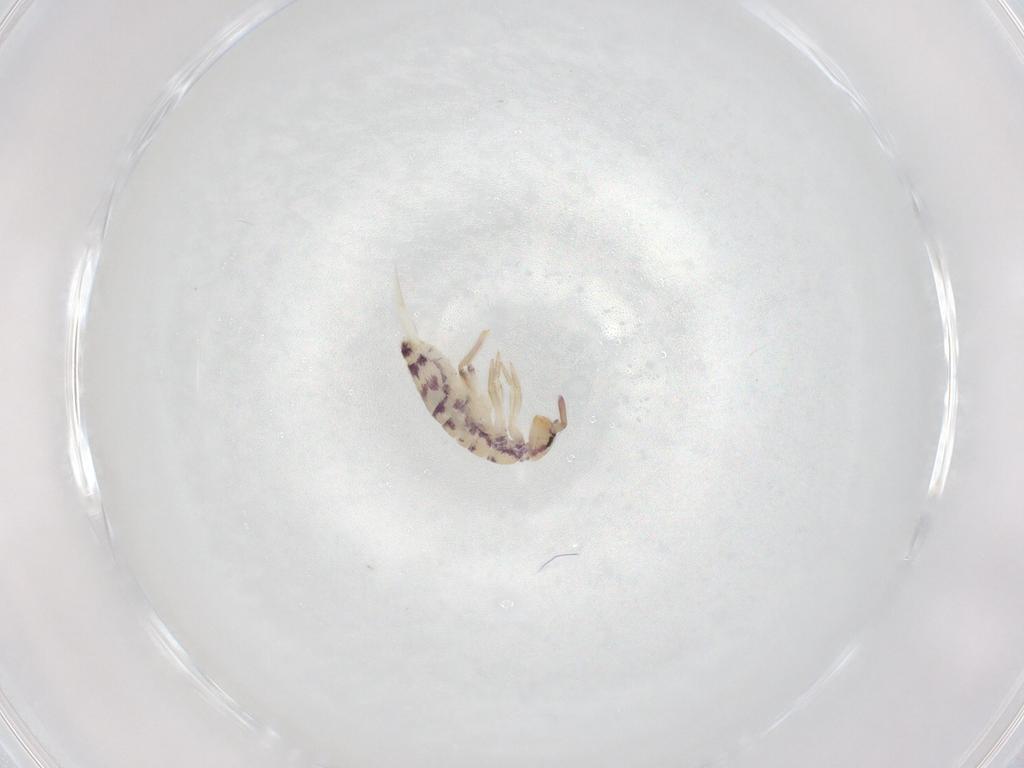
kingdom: Animalia
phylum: Arthropoda
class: Collembola
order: Entomobryomorpha
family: Entomobryidae
